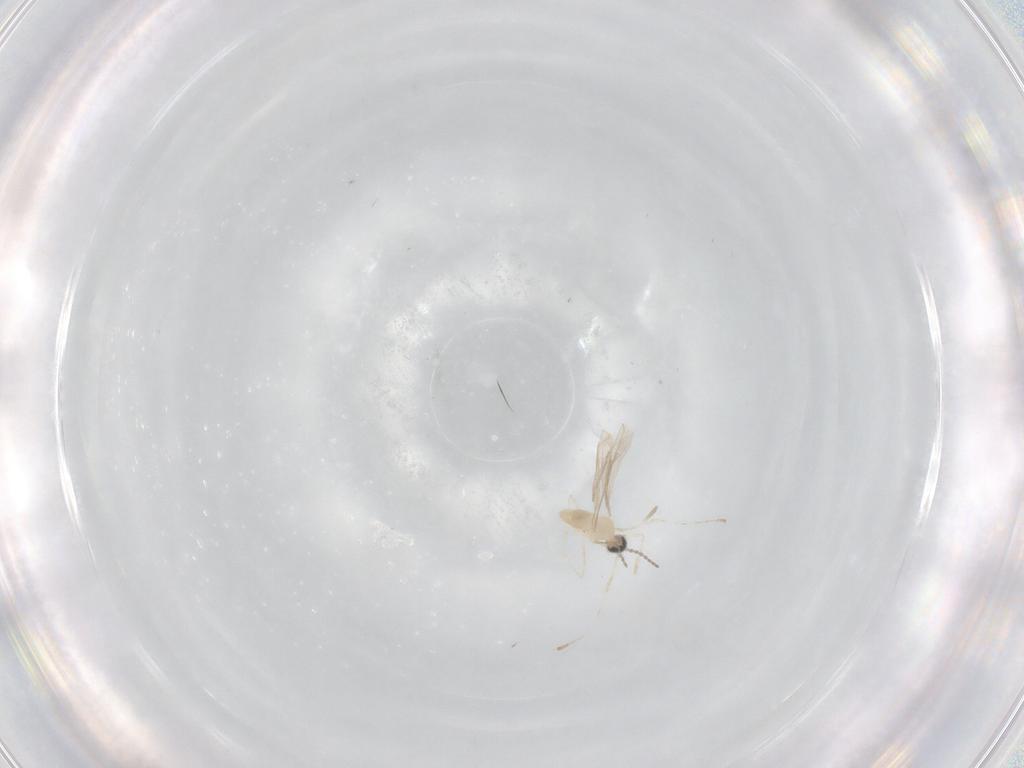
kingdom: Animalia
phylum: Arthropoda
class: Insecta
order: Diptera
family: Cecidomyiidae
